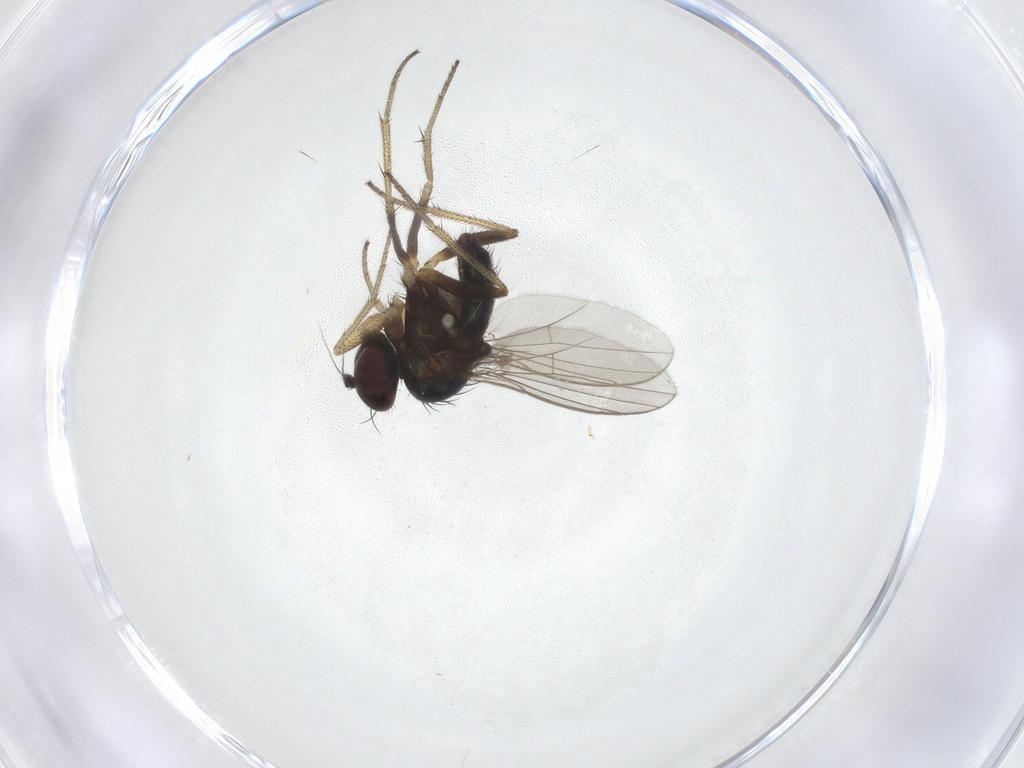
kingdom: Animalia
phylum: Arthropoda
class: Insecta
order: Diptera
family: Dolichopodidae
